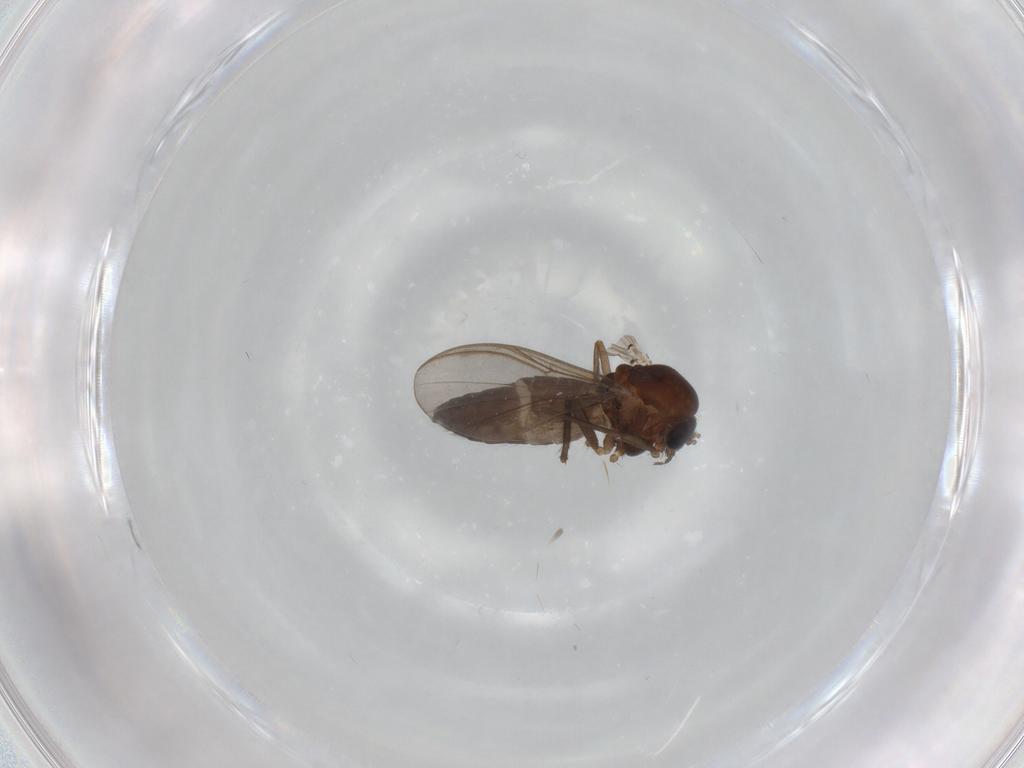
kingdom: Animalia
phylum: Arthropoda
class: Insecta
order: Diptera
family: Chironomidae
